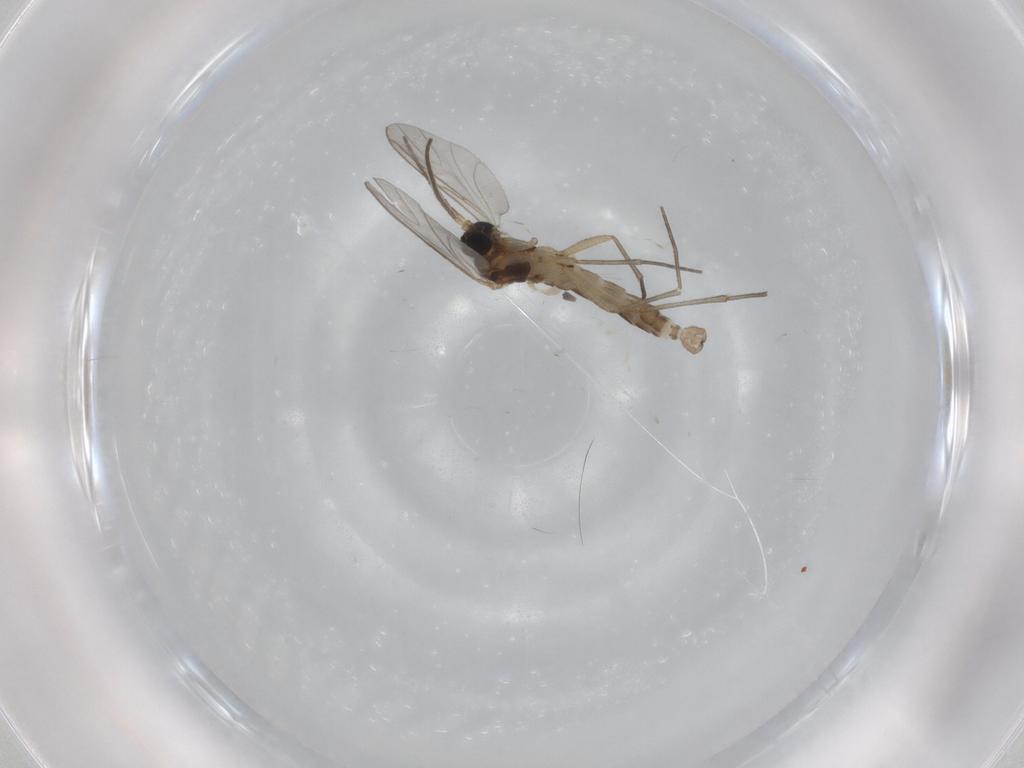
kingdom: Animalia
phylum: Arthropoda
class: Insecta
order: Diptera
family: Sciaridae
